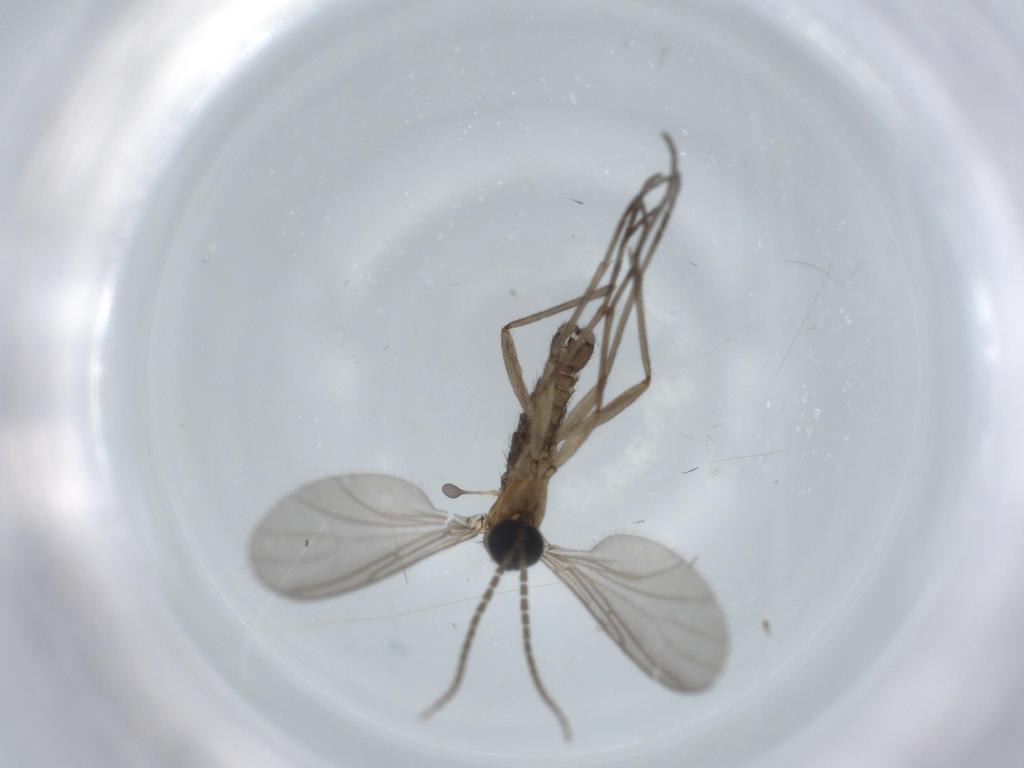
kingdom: Animalia
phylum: Arthropoda
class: Insecta
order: Diptera
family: Sciaridae
